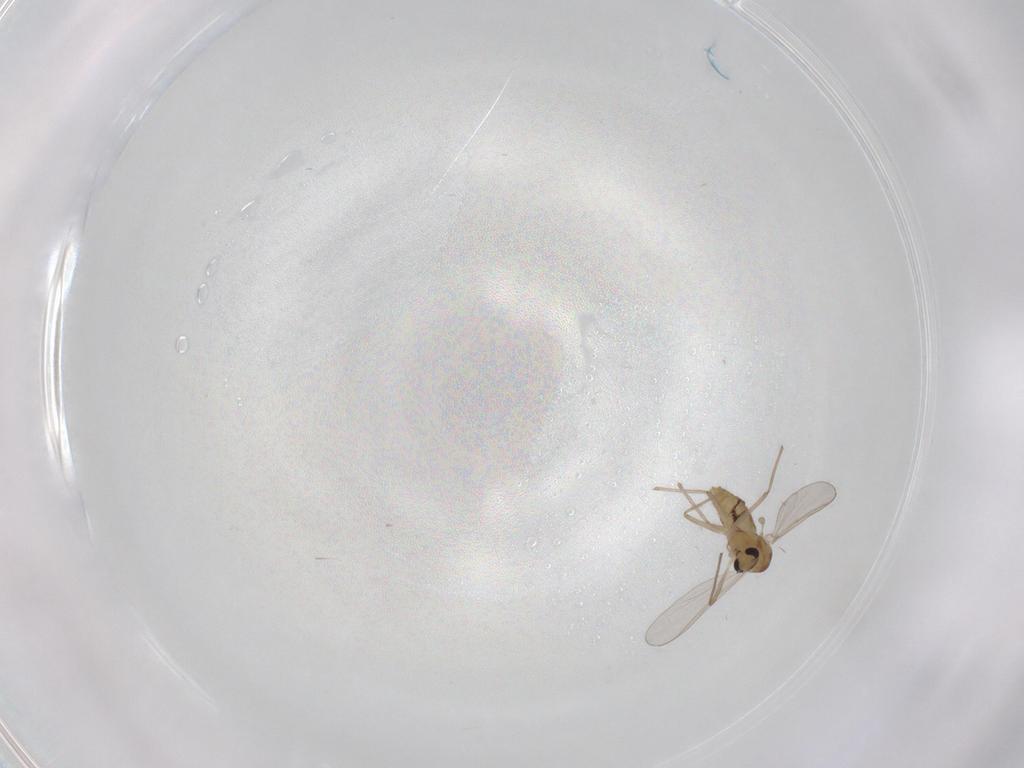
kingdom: Animalia
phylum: Arthropoda
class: Insecta
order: Diptera
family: Chironomidae
